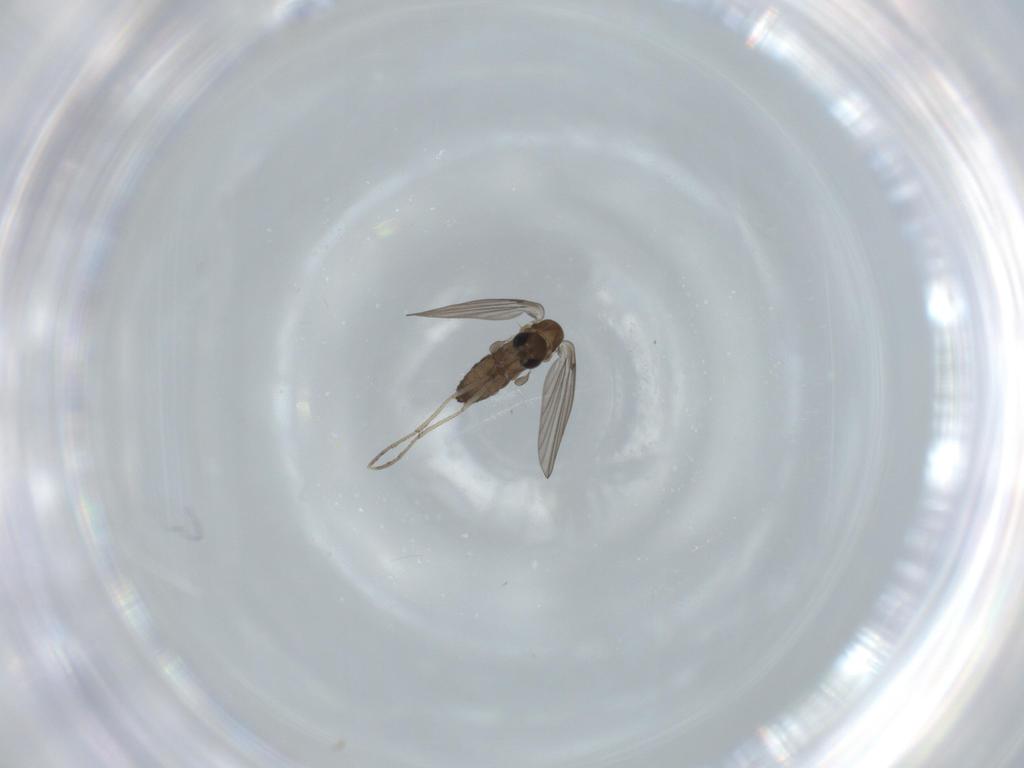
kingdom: Animalia
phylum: Arthropoda
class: Insecta
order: Diptera
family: Psychodidae
